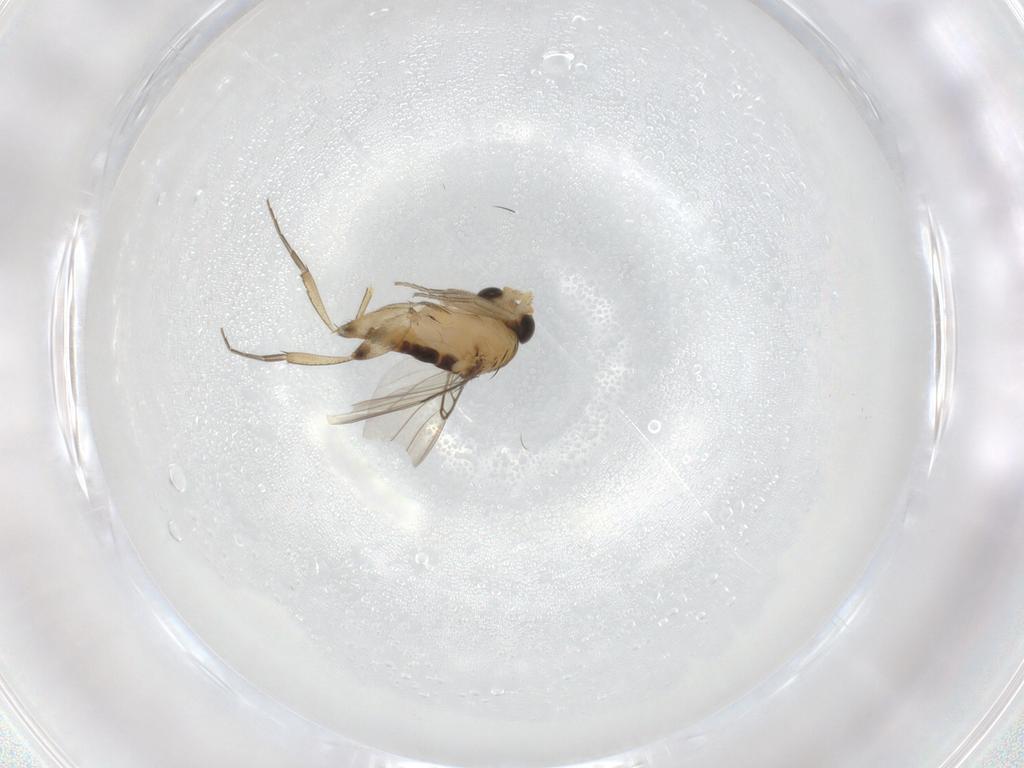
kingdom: Animalia
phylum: Arthropoda
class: Insecta
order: Diptera
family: Phoridae
